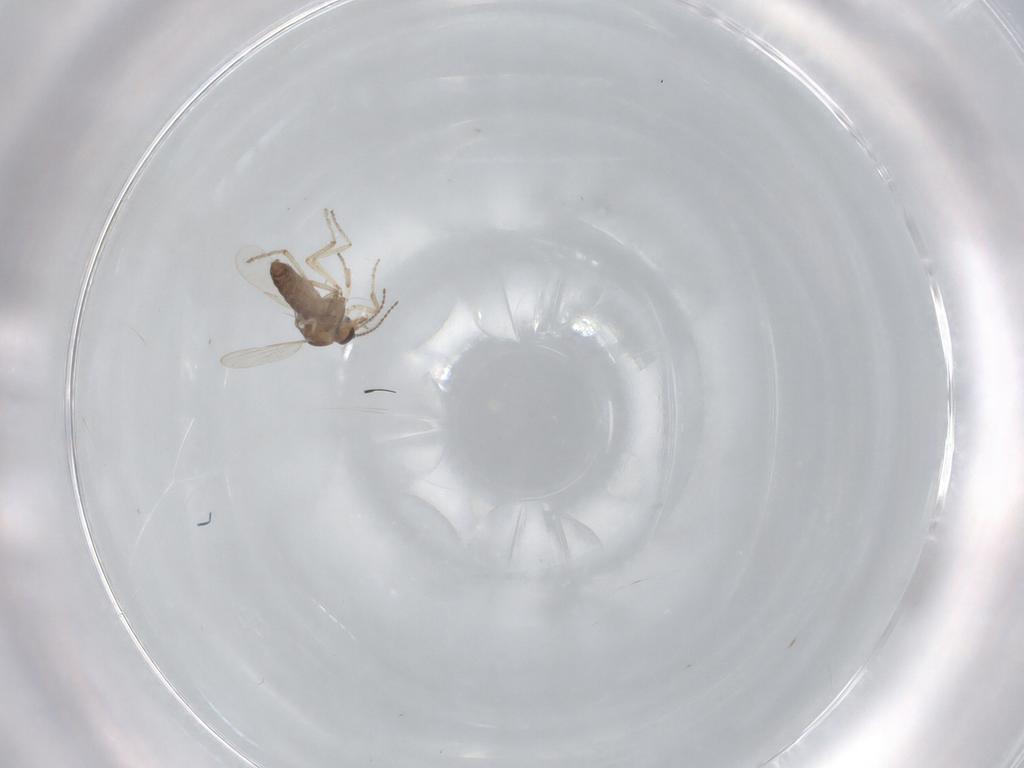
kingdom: Animalia
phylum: Arthropoda
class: Insecta
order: Diptera
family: Ceratopogonidae
